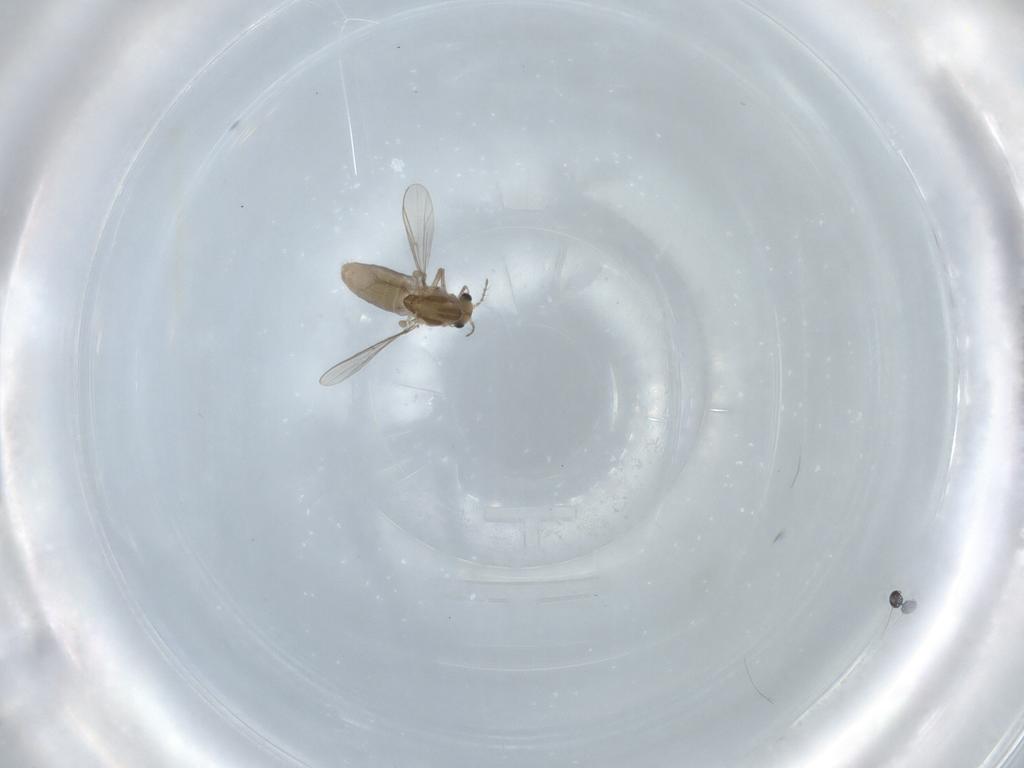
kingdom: Animalia
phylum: Arthropoda
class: Insecta
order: Diptera
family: Chironomidae
